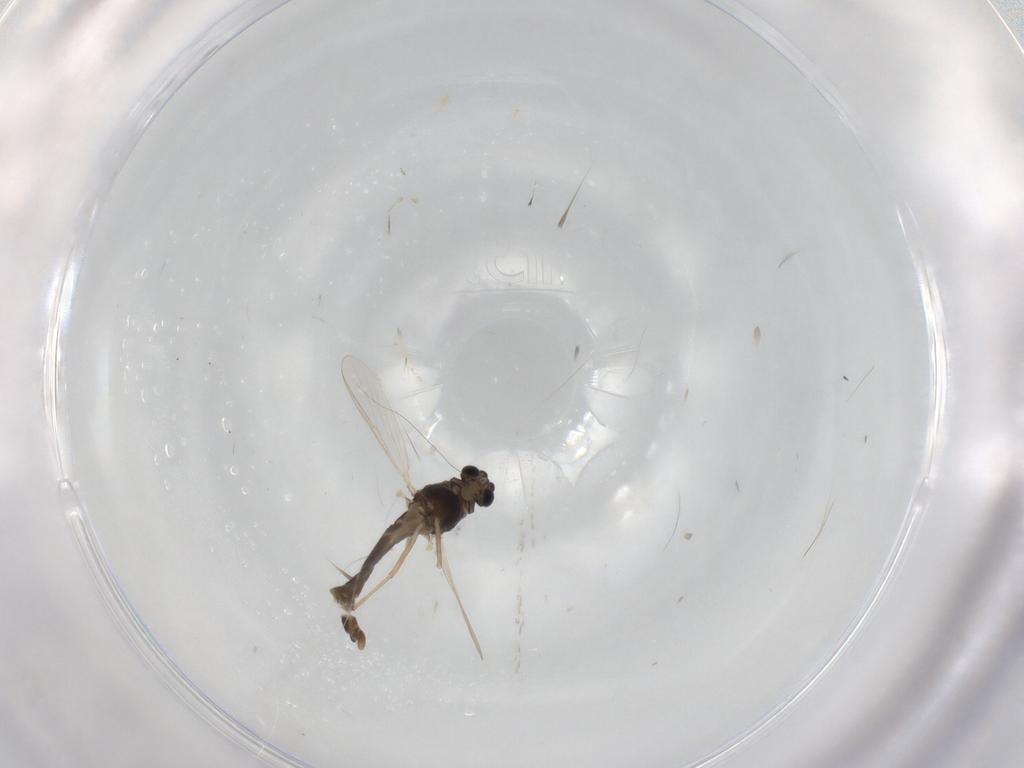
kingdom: Animalia
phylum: Arthropoda
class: Insecta
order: Diptera
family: Chironomidae
